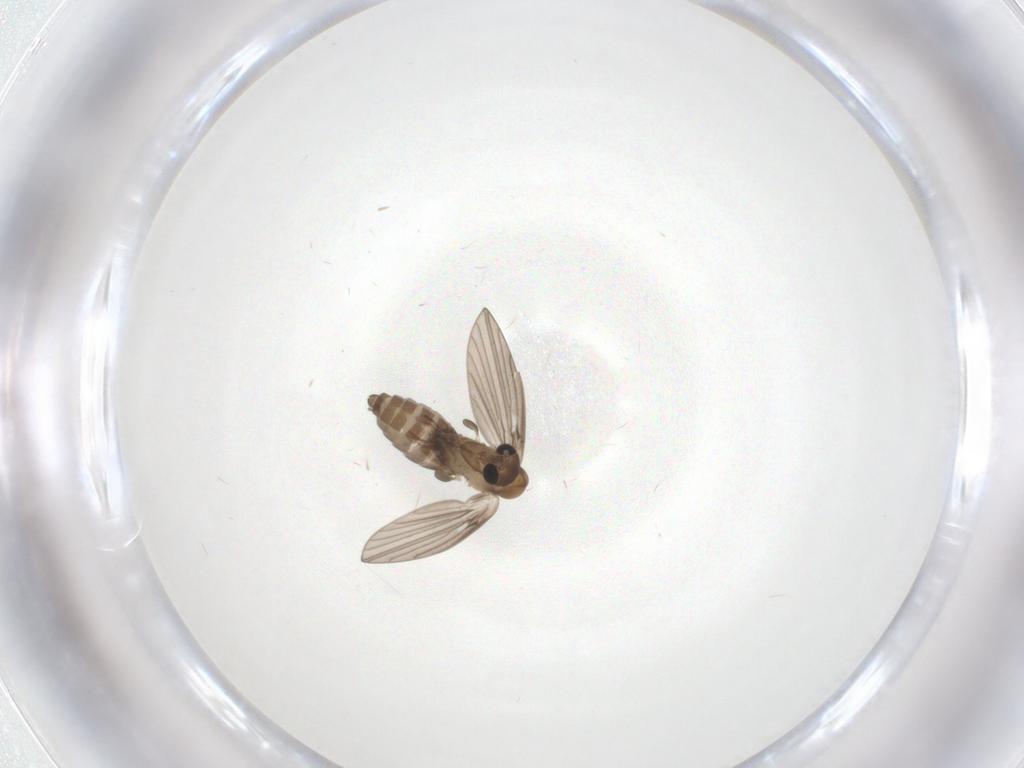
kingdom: Animalia
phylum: Arthropoda
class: Insecta
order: Diptera
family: Psychodidae
